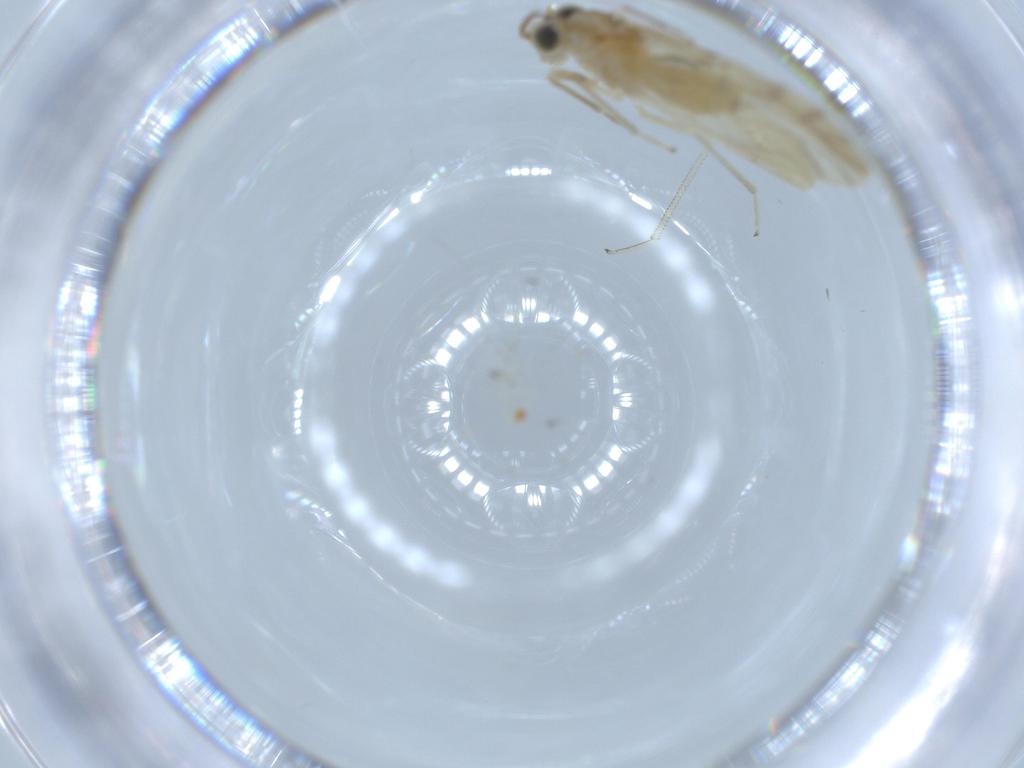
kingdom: Animalia
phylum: Arthropoda
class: Insecta
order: Psocodea
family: Caeciliusidae
